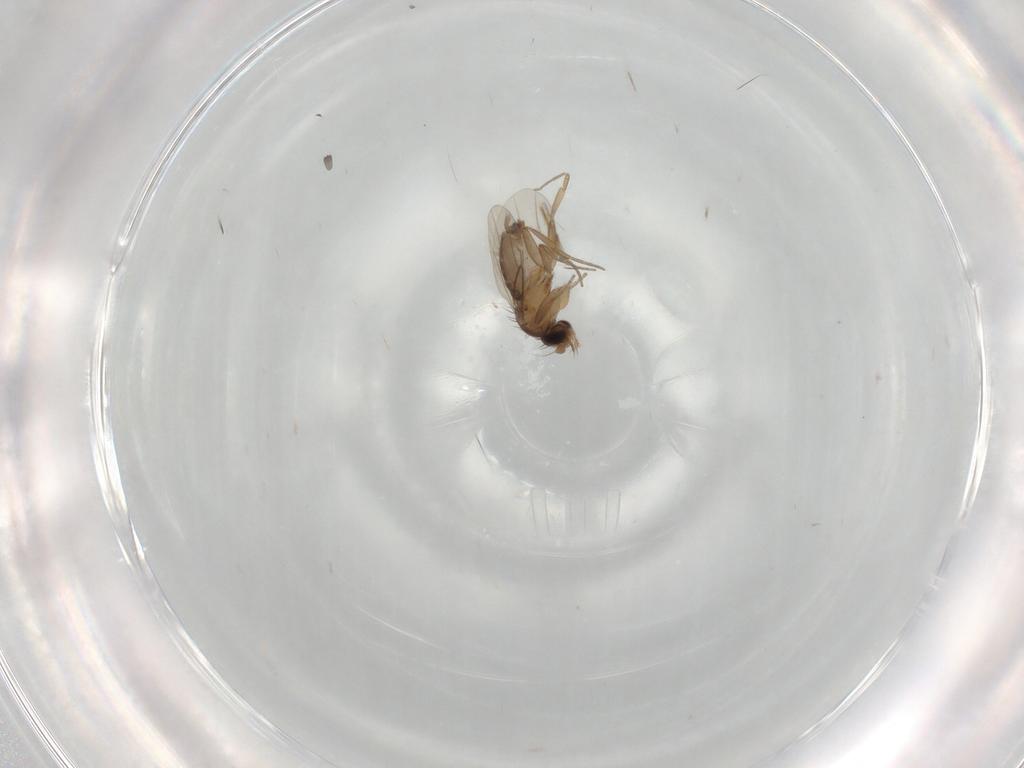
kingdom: Animalia
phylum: Arthropoda
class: Insecta
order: Diptera
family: Phoridae
